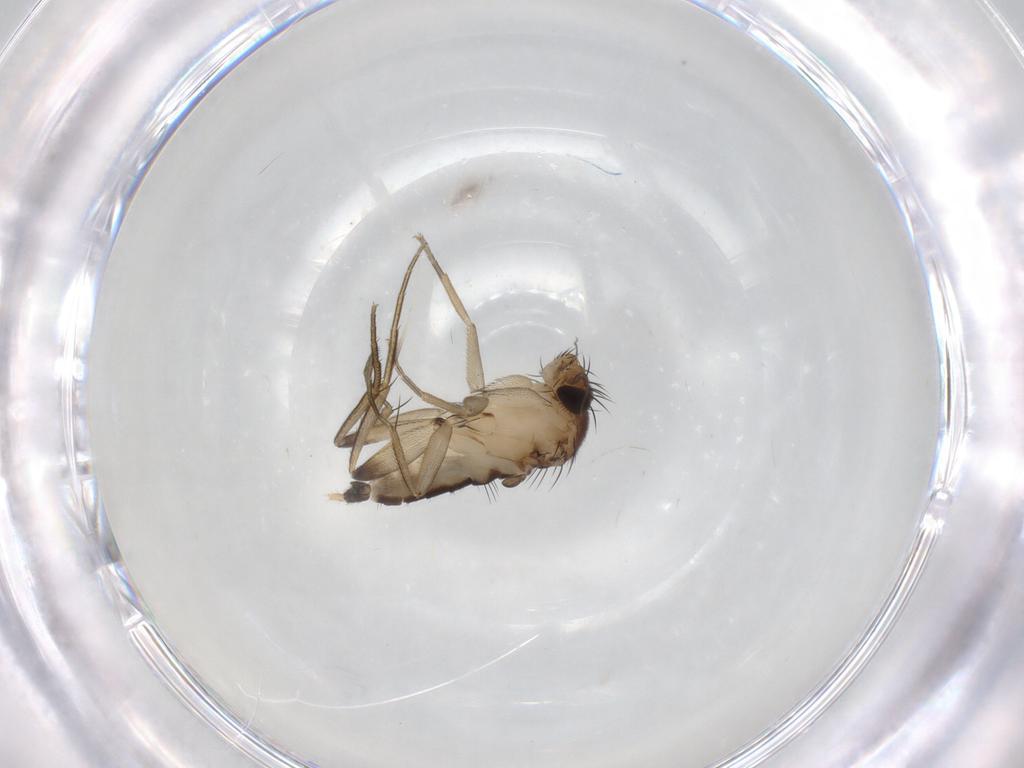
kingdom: Animalia
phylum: Arthropoda
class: Insecta
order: Diptera
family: Phoridae
